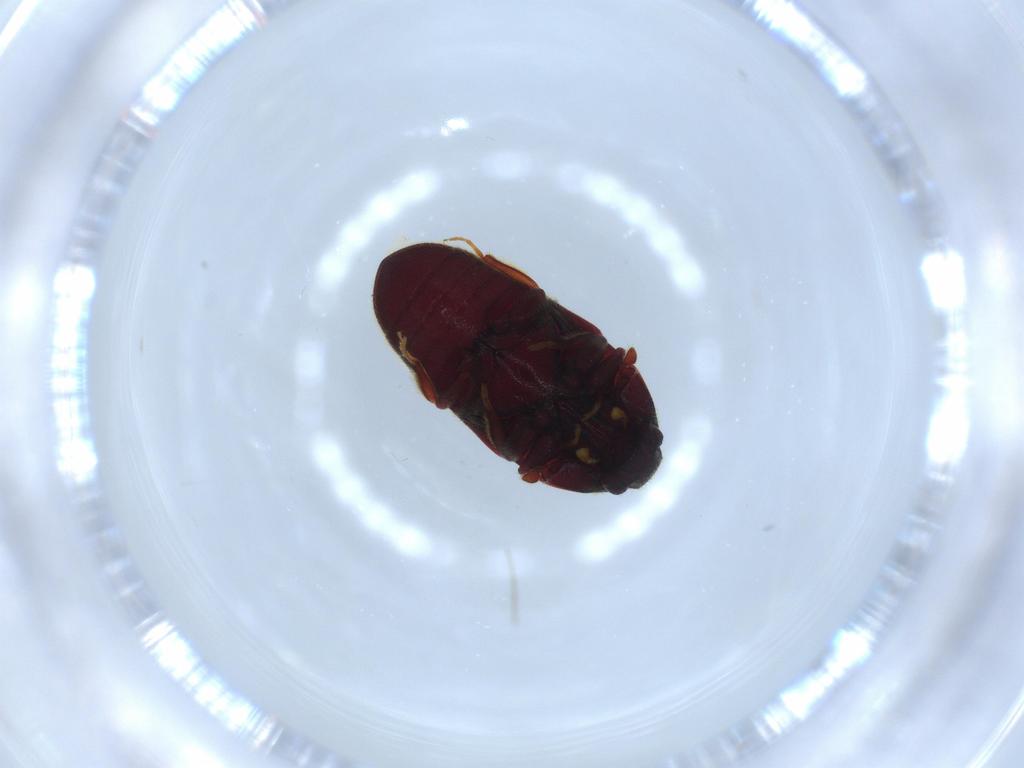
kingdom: Animalia
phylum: Arthropoda
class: Insecta
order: Coleoptera
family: Throscidae
